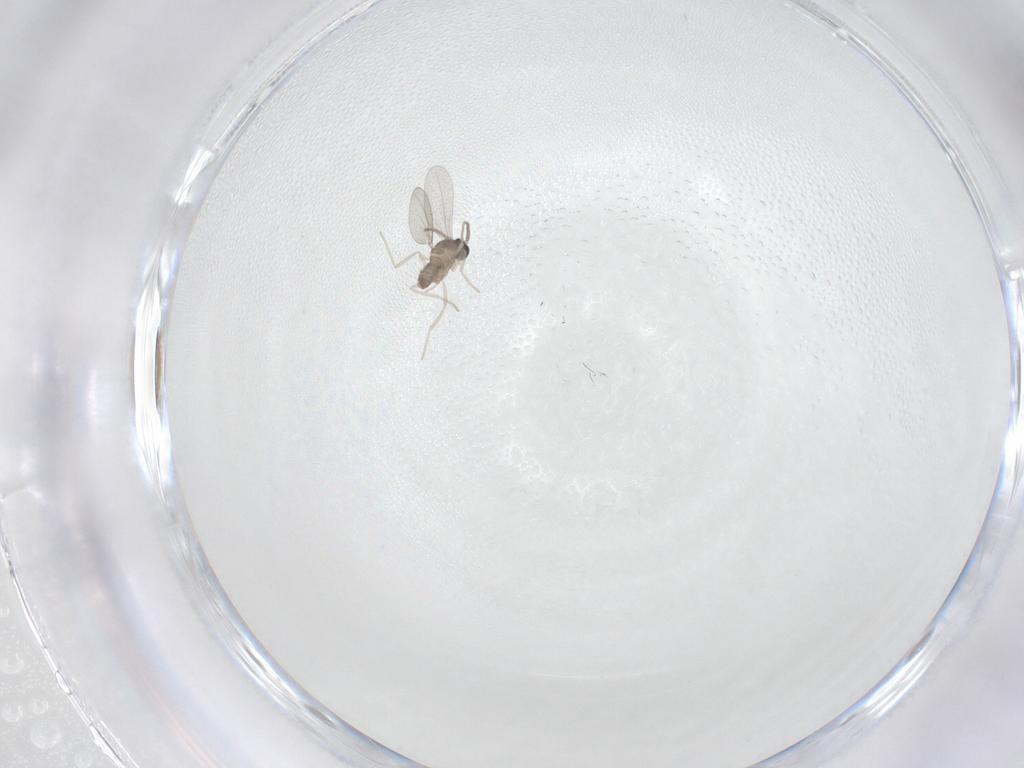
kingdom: Animalia
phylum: Arthropoda
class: Insecta
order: Diptera
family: Cecidomyiidae
